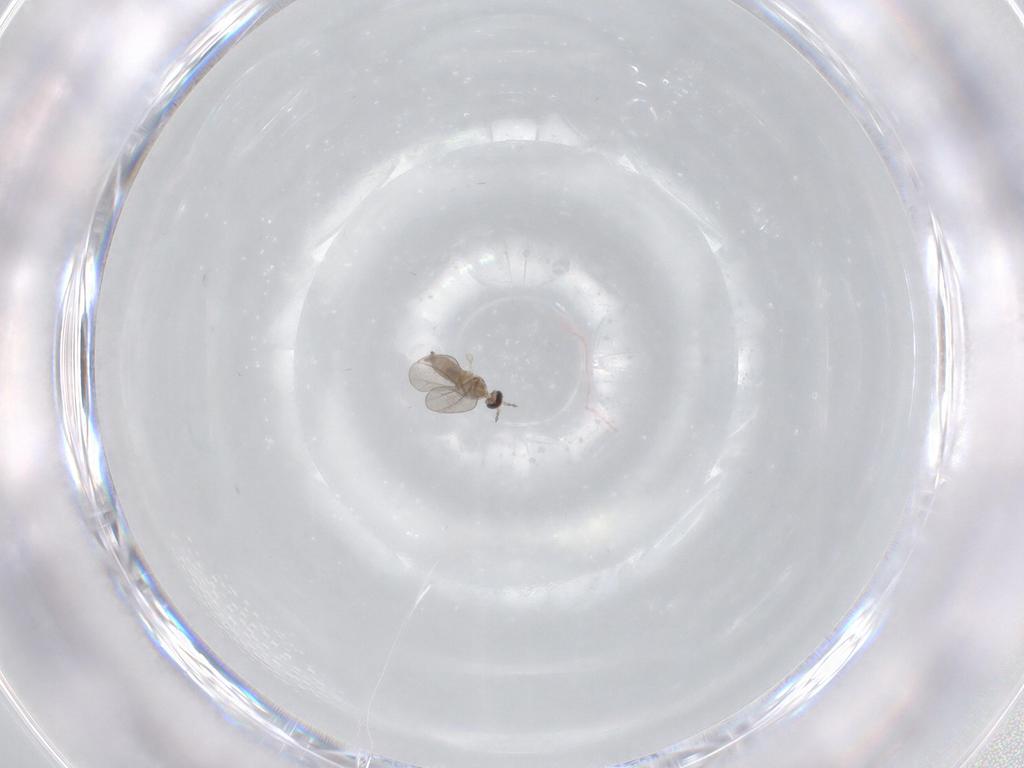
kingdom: Animalia
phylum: Arthropoda
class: Insecta
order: Diptera
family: Cecidomyiidae
